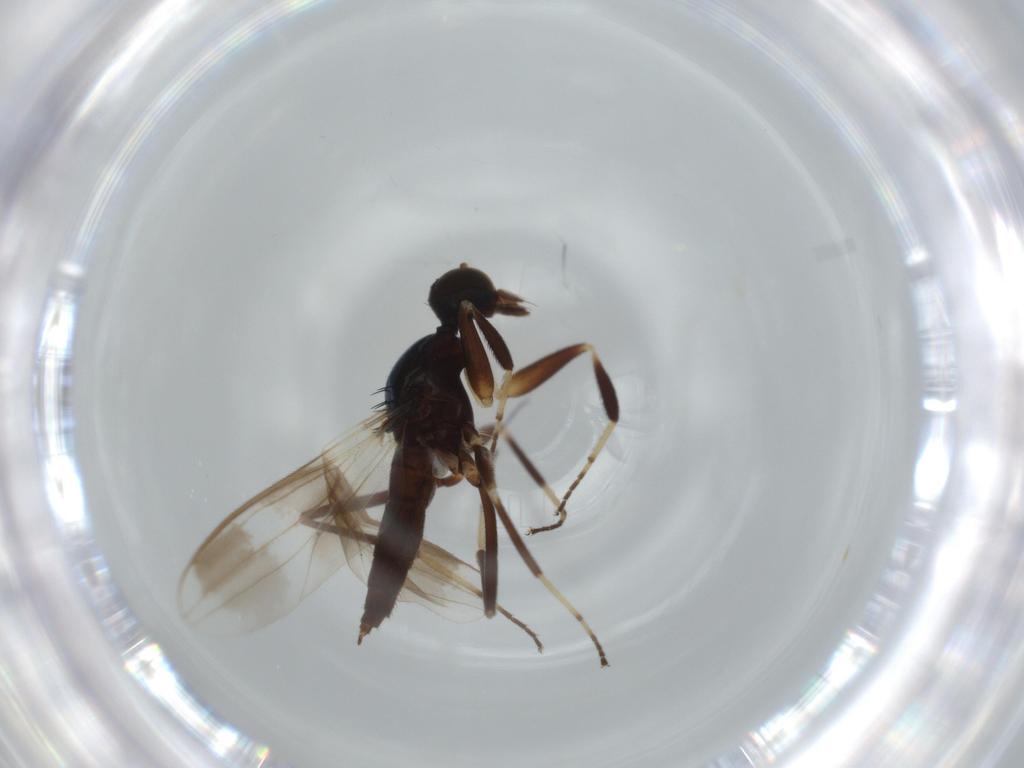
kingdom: Animalia
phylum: Arthropoda
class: Insecta
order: Diptera
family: Hybotidae
